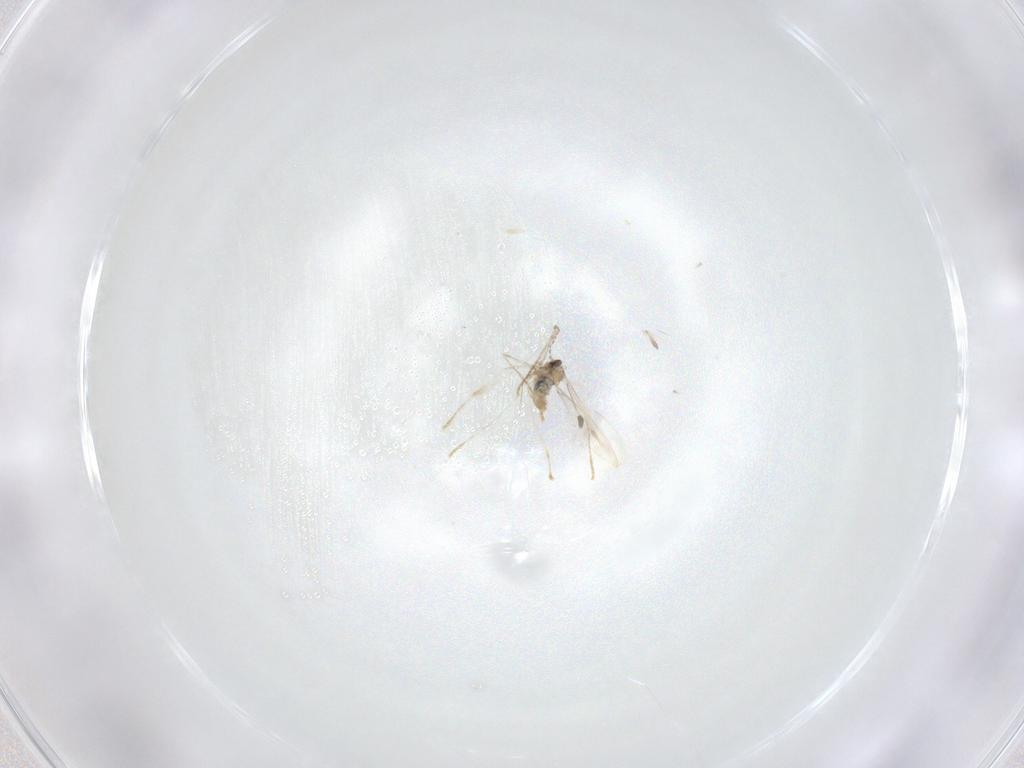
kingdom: Animalia
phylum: Arthropoda
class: Insecta
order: Diptera
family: Cecidomyiidae
